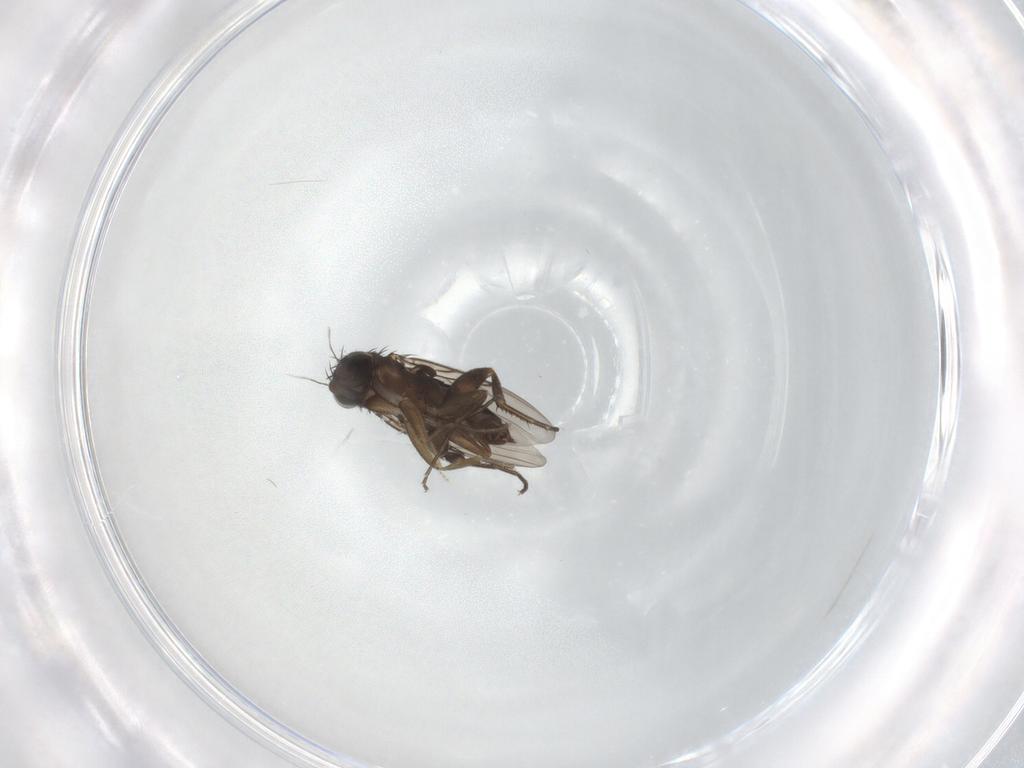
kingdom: Animalia
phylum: Arthropoda
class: Insecta
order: Diptera
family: Phoridae
